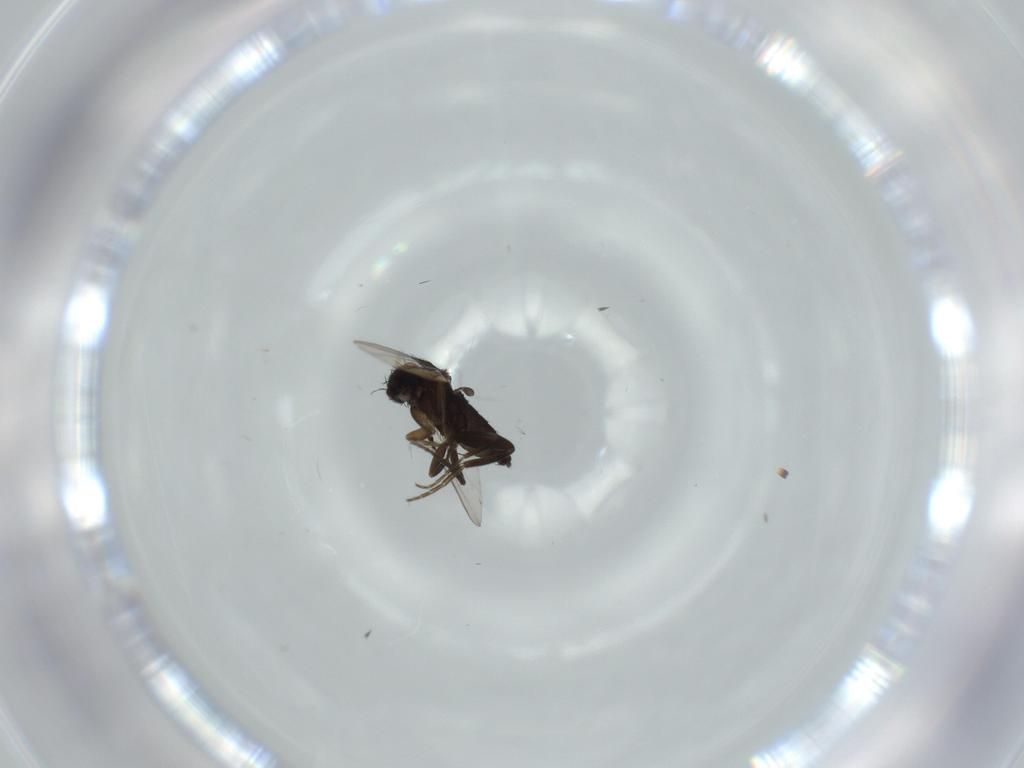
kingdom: Animalia
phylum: Arthropoda
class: Insecta
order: Diptera
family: Phoridae
